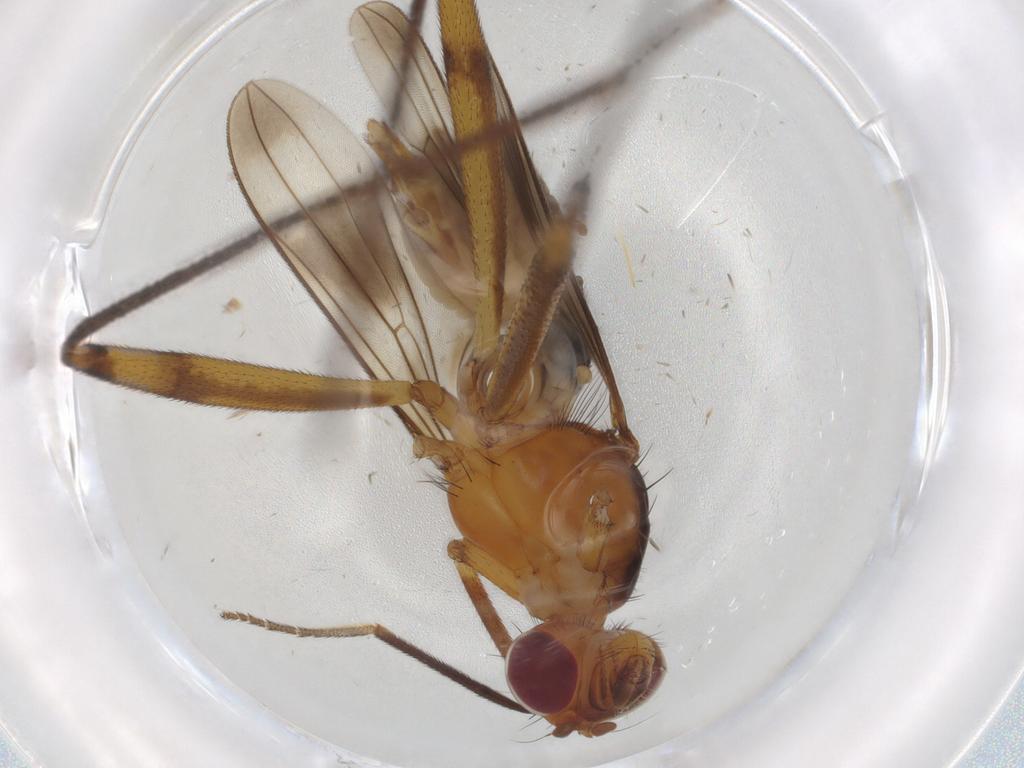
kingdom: Animalia
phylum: Arthropoda
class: Insecta
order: Diptera
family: Micropezidae
